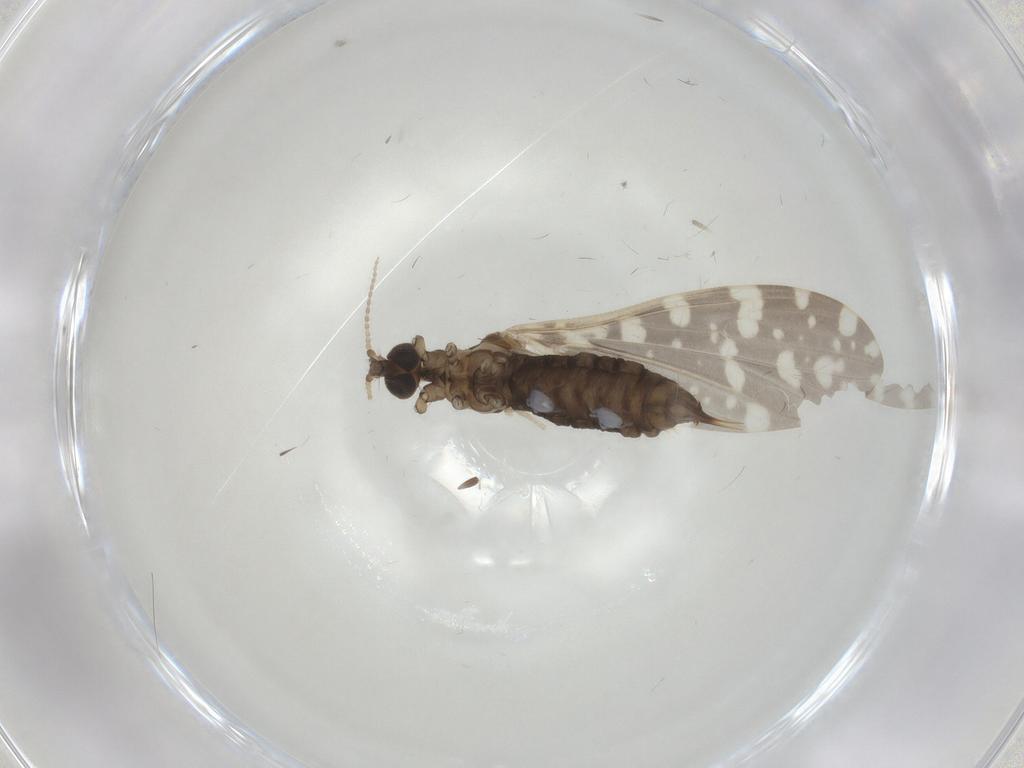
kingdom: Animalia
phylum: Arthropoda
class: Insecta
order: Diptera
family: Limoniidae
